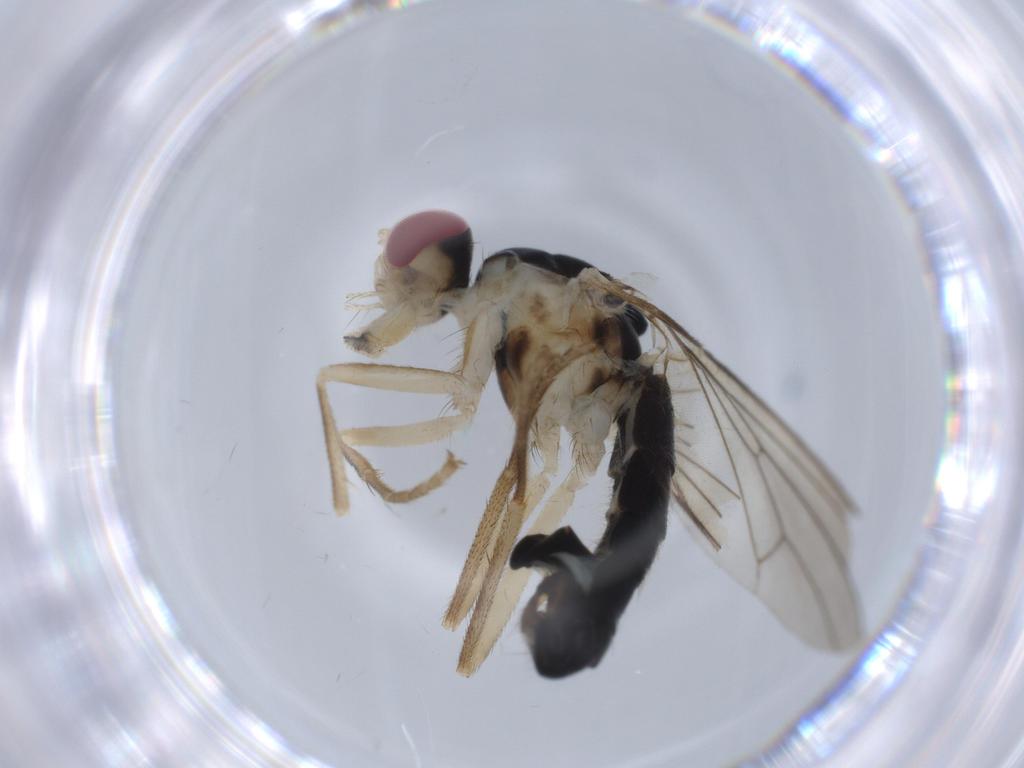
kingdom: Animalia
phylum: Arthropoda
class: Insecta
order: Diptera
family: Scathophagidae
